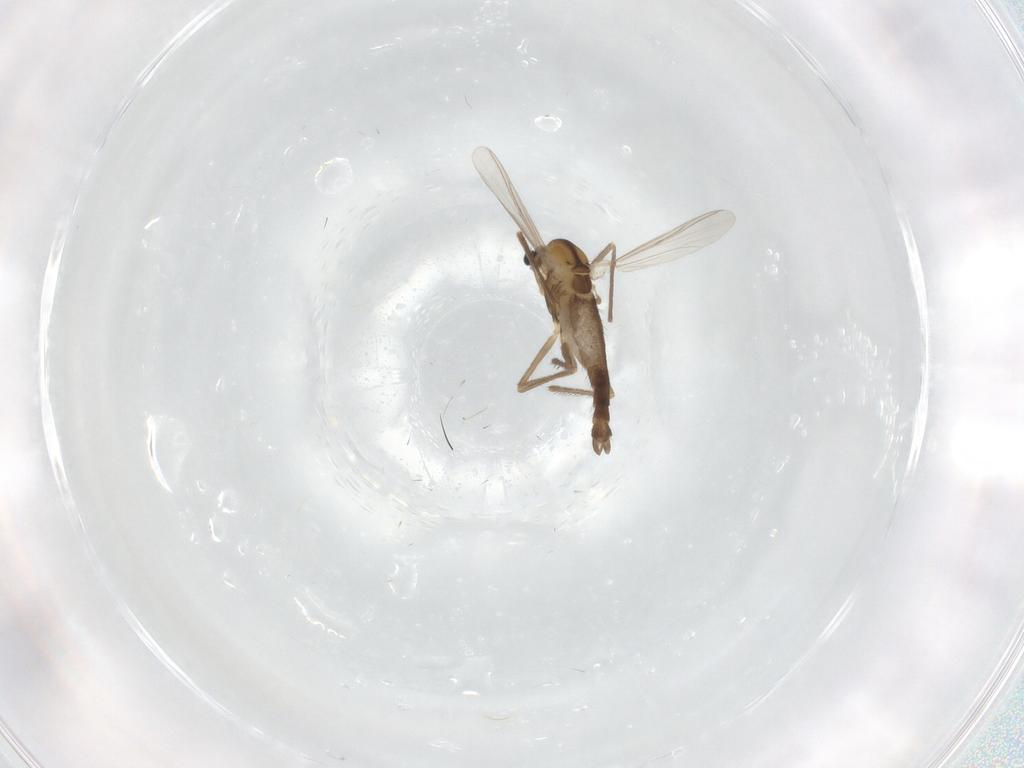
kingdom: Animalia
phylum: Arthropoda
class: Insecta
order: Diptera
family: Chironomidae
